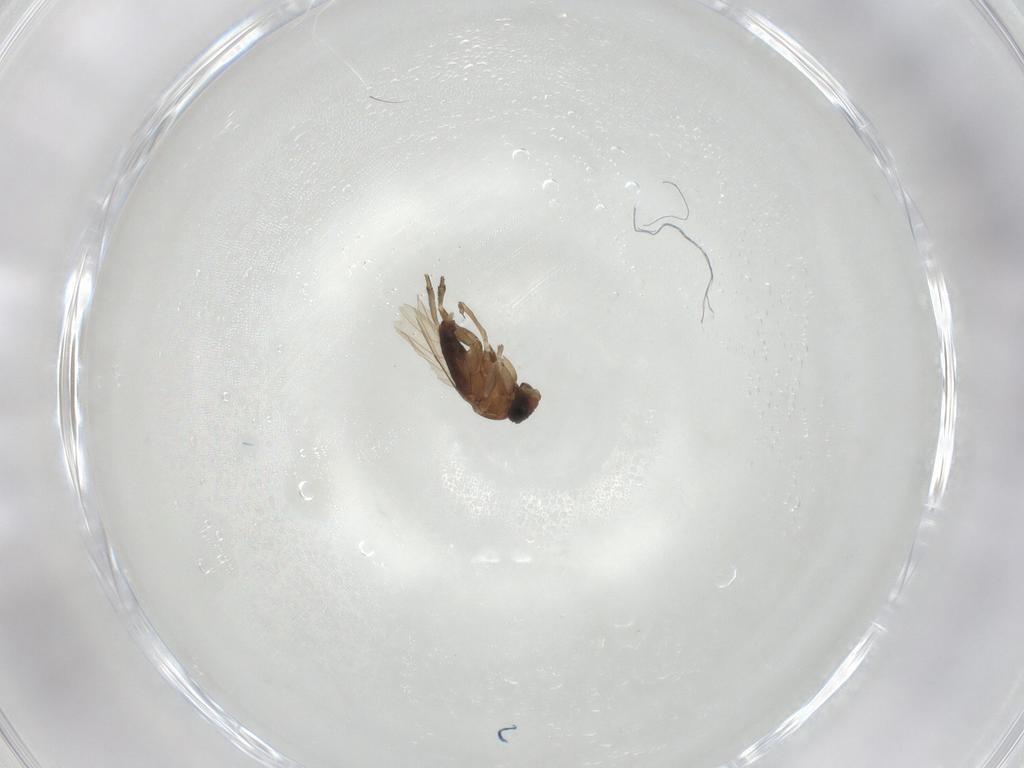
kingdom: Animalia
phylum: Arthropoda
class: Insecta
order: Diptera
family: Phoridae
